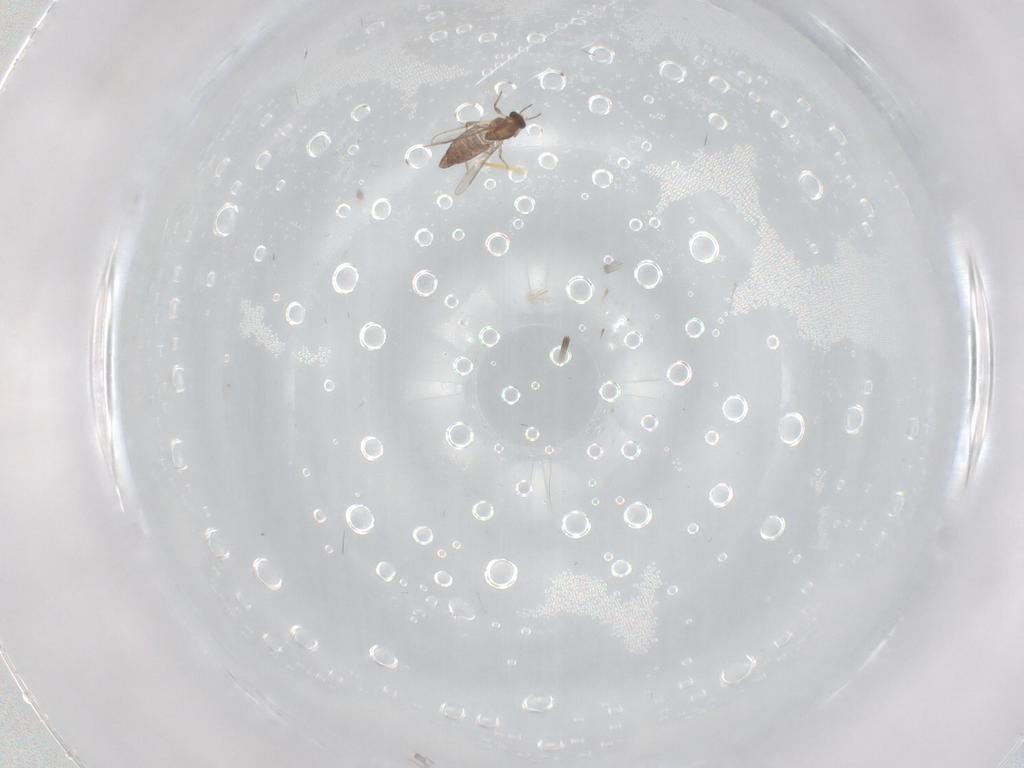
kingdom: Animalia
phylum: Arthropoda
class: Insecta
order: Diptera
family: Chironomidae
